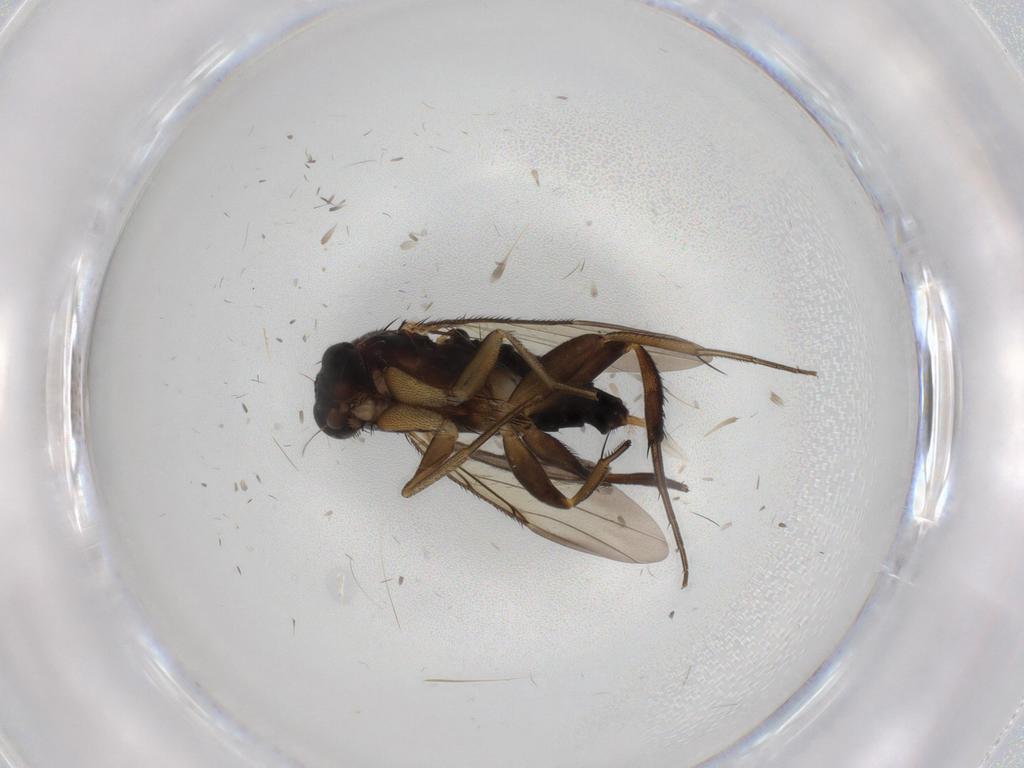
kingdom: Animalia
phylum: Arthropoda
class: Insecta
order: Diptera
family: Phoridae
